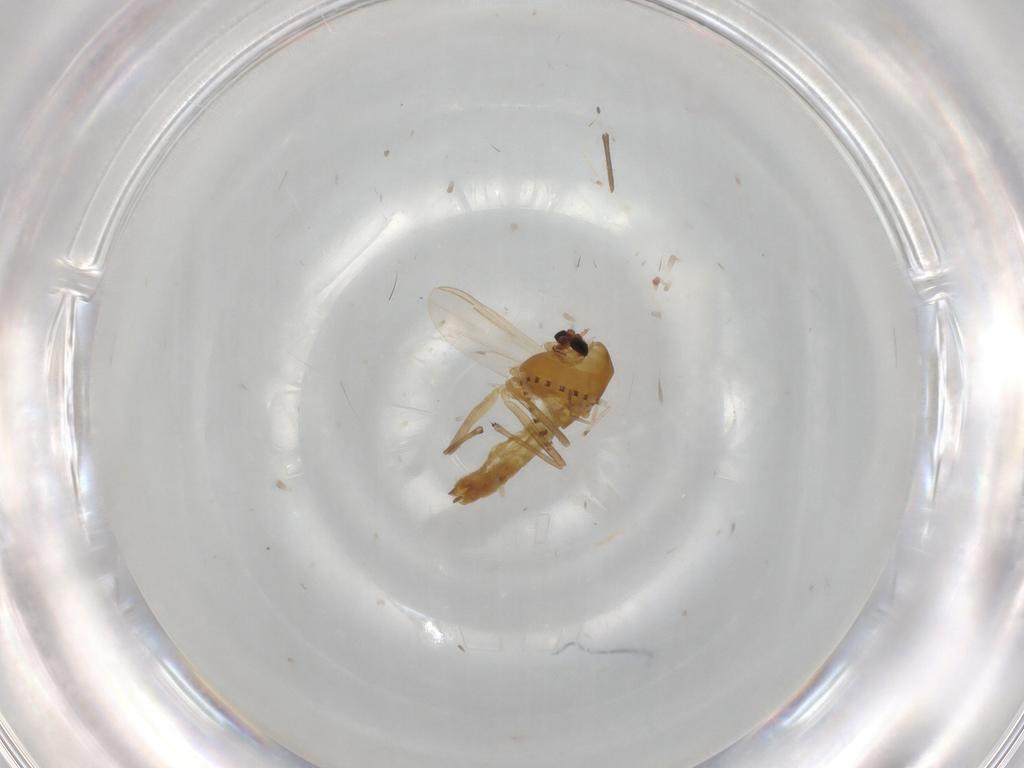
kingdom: Animalia
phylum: Arthropoda
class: Insecta
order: Diptera
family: Chironomidae
